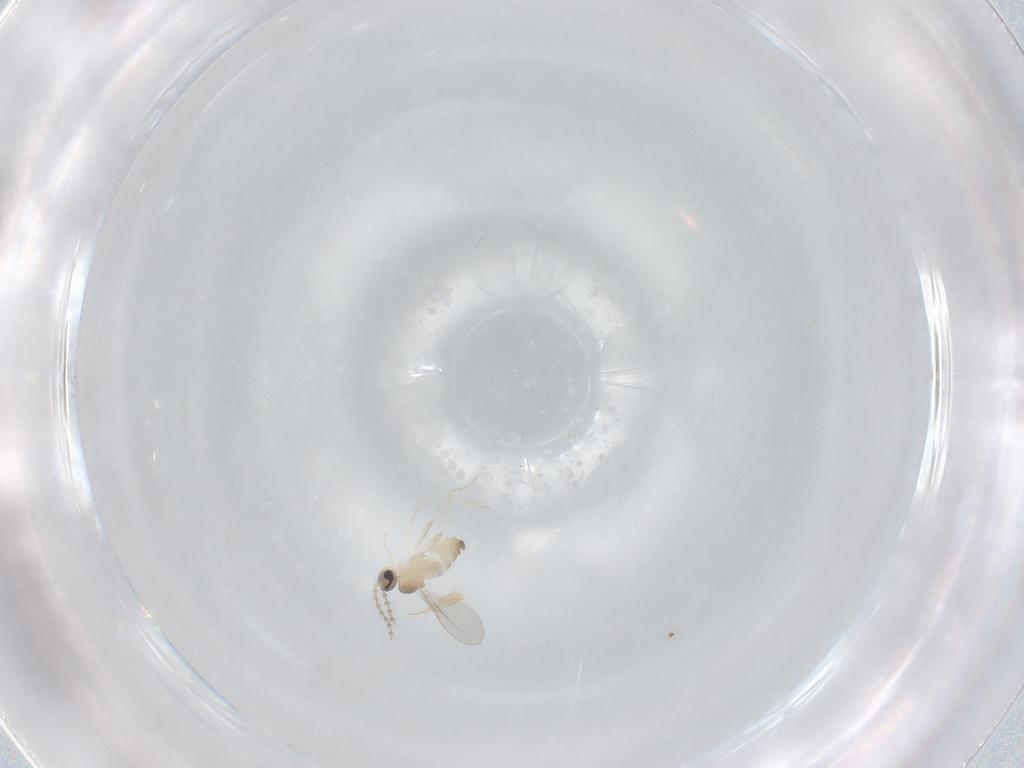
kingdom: Animalia
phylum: Arthropoda
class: Insecta
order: Diptera
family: Cecidomyiidae
